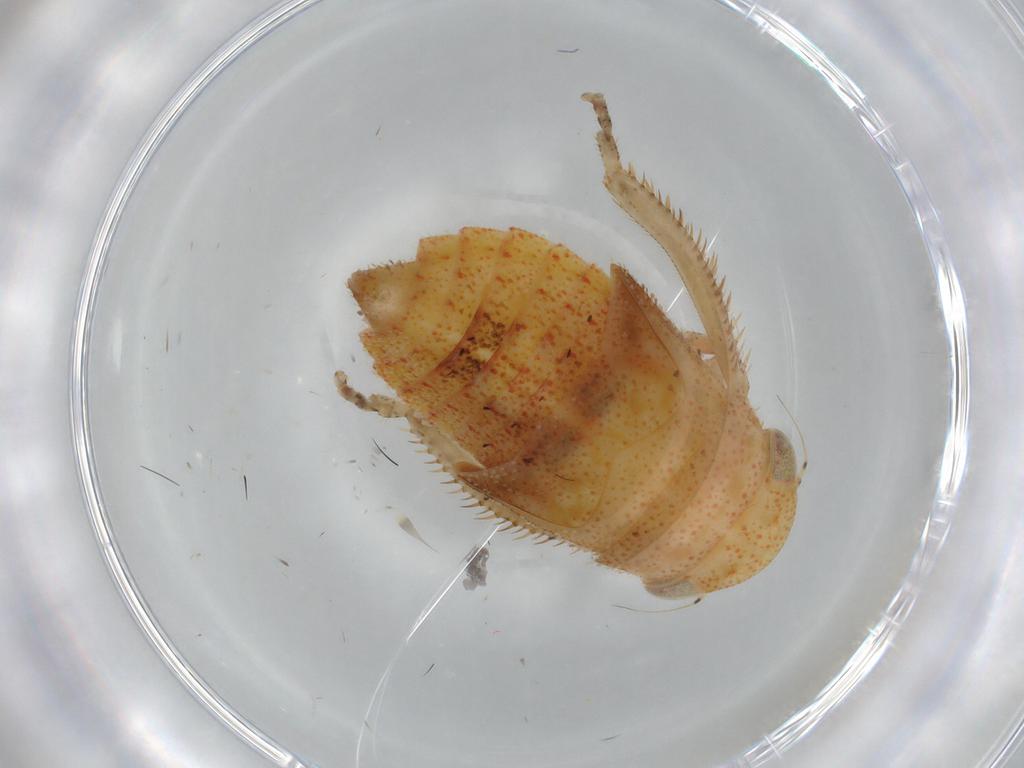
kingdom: Animalia
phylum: Arthropoda
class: Insecta
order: Hemiptera
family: Cicadellidae
